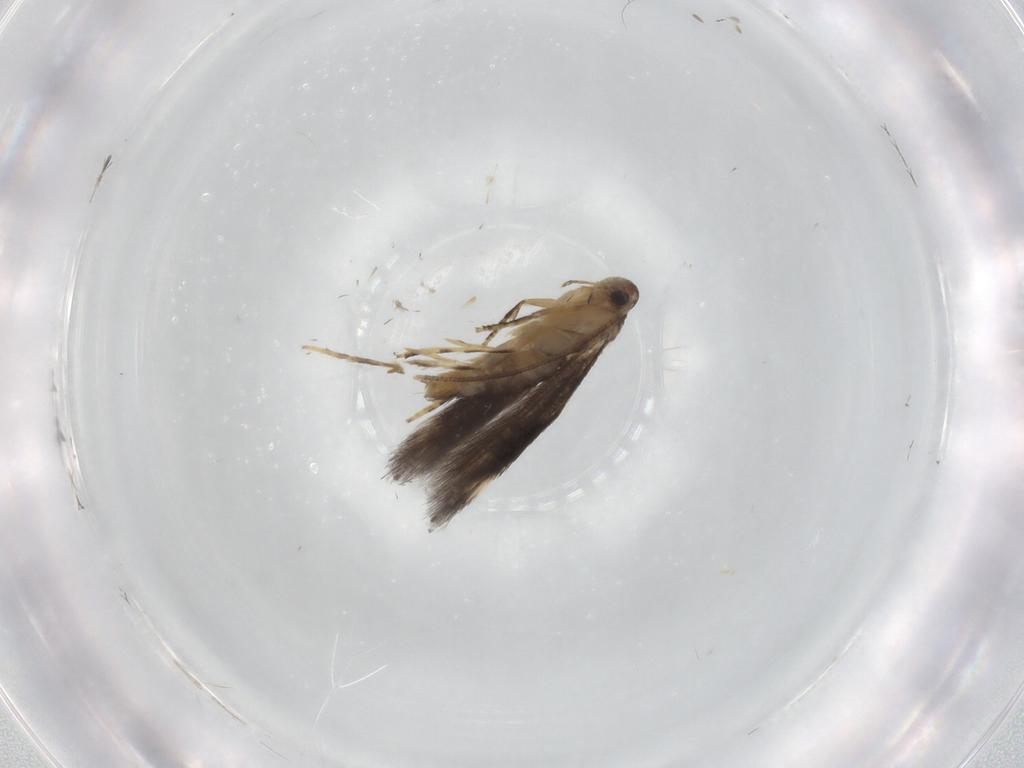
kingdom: Animalia
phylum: Arthropoda
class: Insecta
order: Lepidoptera
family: Elachistidae
